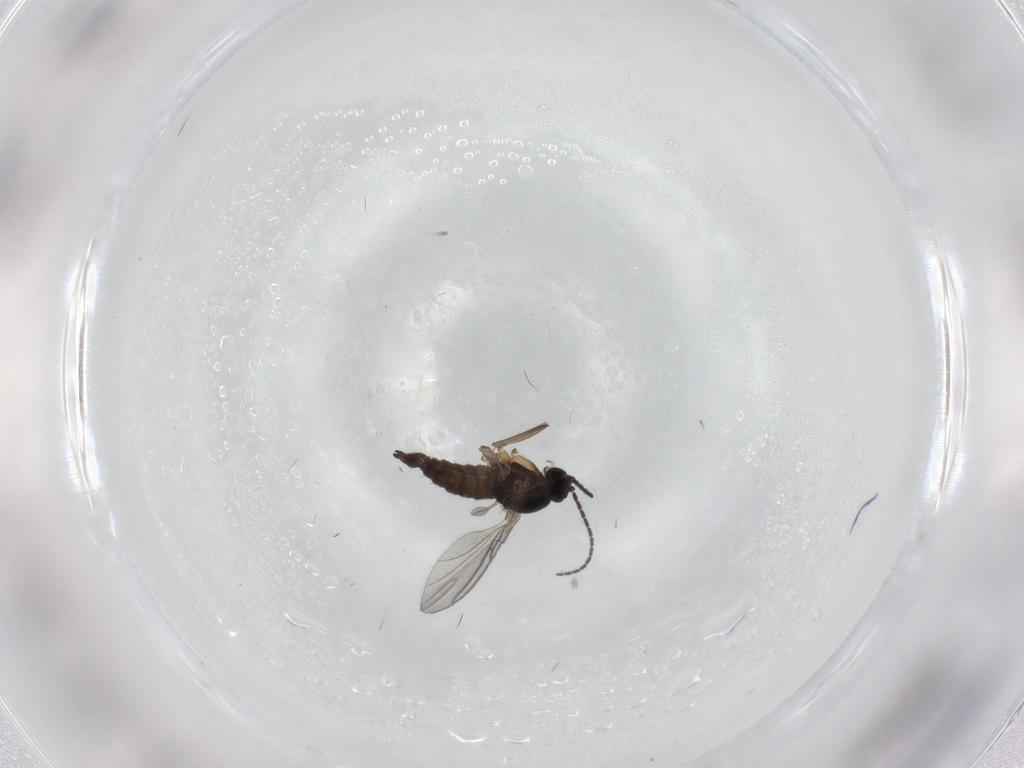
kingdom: Animalia
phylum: Arthropoda
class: Insecta
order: Diptera
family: Sciaridae
